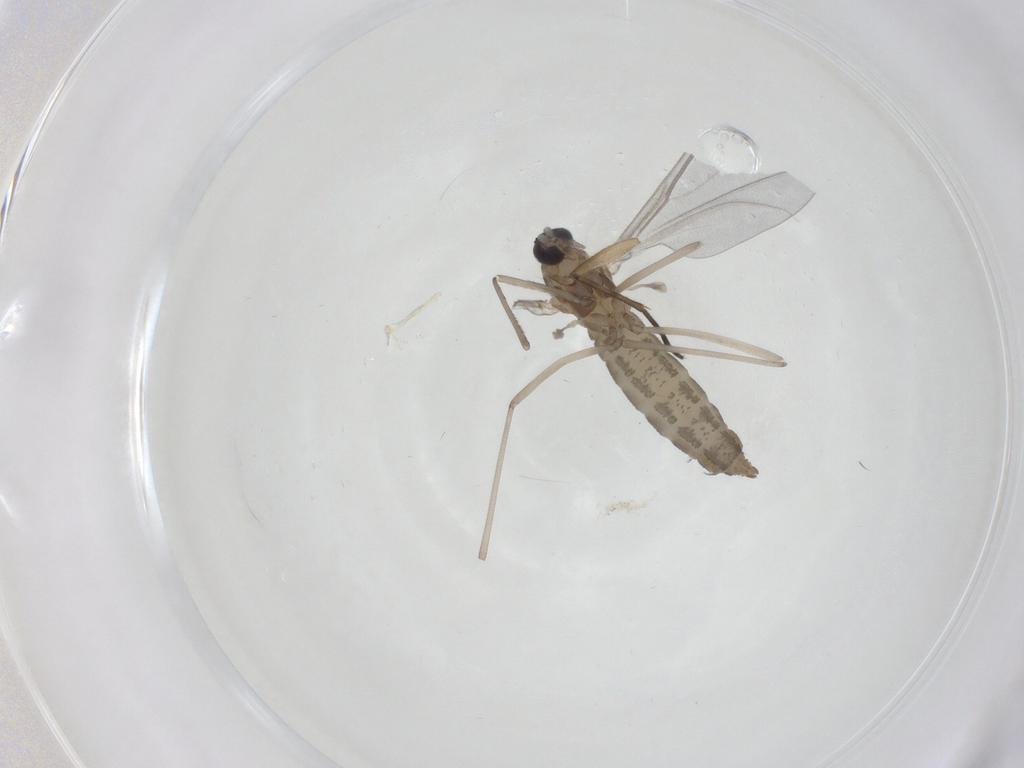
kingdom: Animalia
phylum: Arthropoda
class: Insecta
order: Diptera
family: Cecidomyiidae
